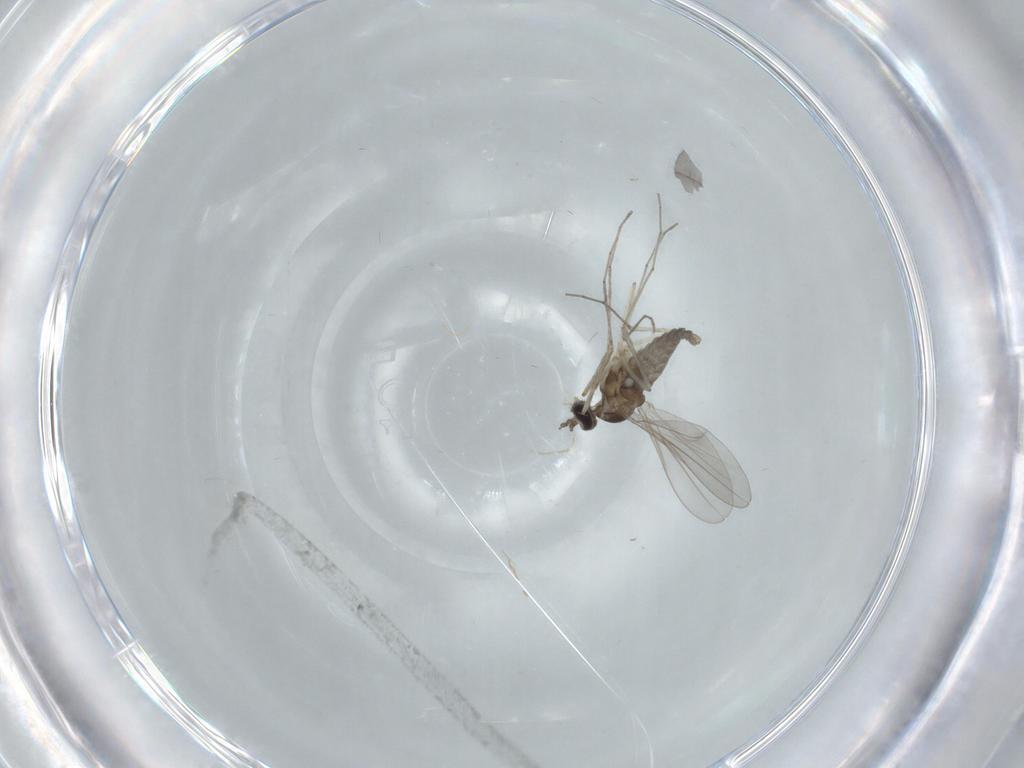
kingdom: Animalia
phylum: Arthropoda
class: Insecta
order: Diptera
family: Cecidomyiidae
